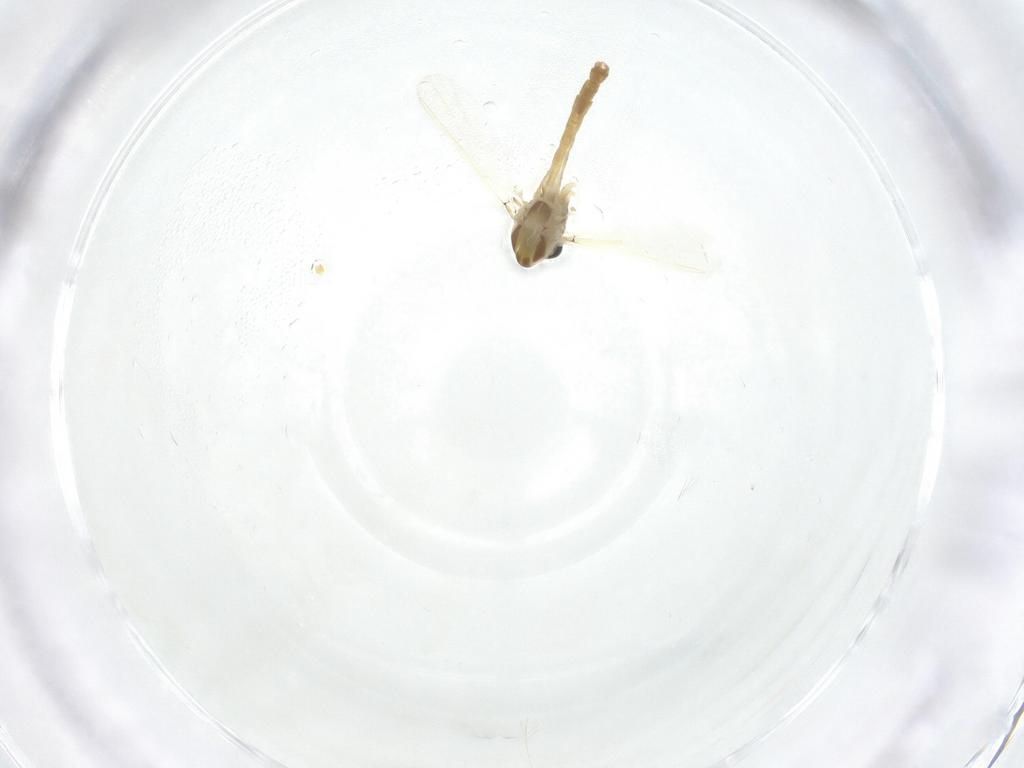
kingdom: Animalia
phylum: Arthropoda
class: Insecta
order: Diptera
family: Chironomidae
